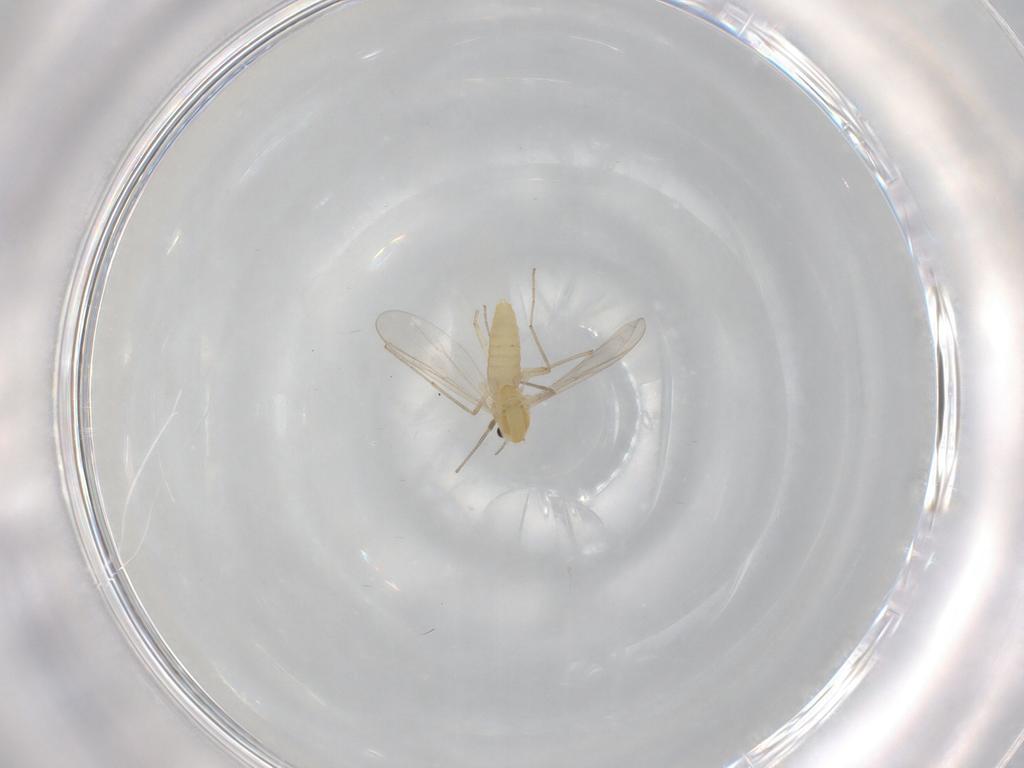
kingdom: Animalia
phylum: Arthropoda
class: Insecta
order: Diptera
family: Chironomidae
